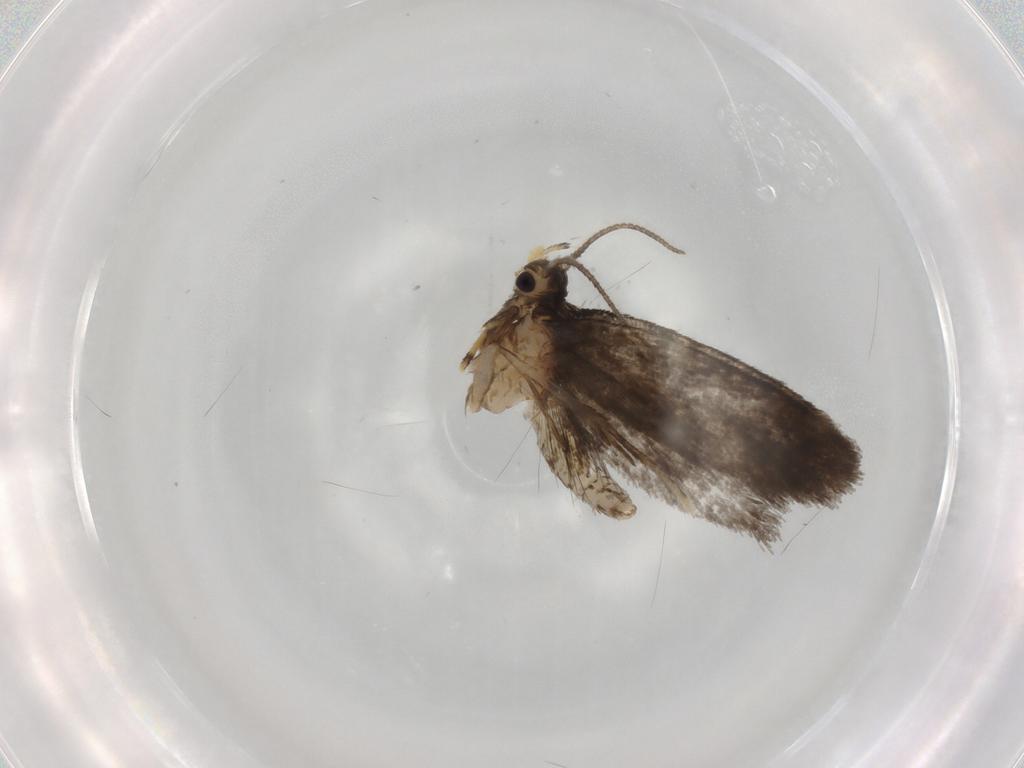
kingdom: Animalia
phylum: Arthropoda
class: Insecta
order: Lepidoptera
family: Psychidae
